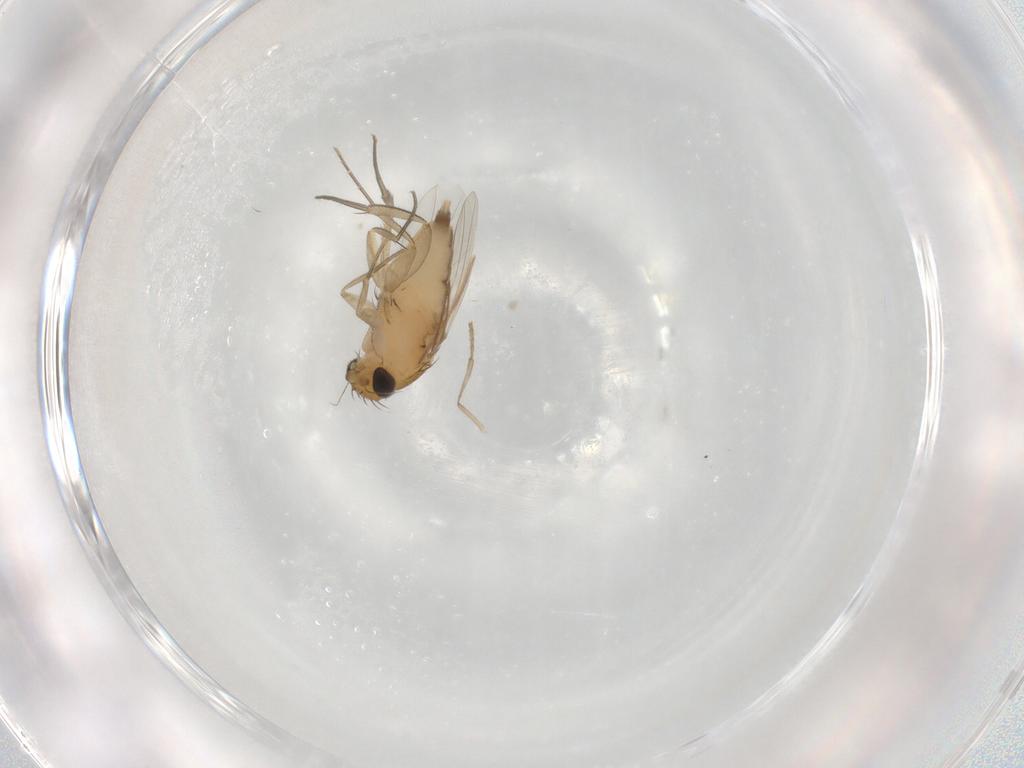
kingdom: Animalia
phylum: Arthropoda
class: Insecta
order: Diptera
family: Phoridae
